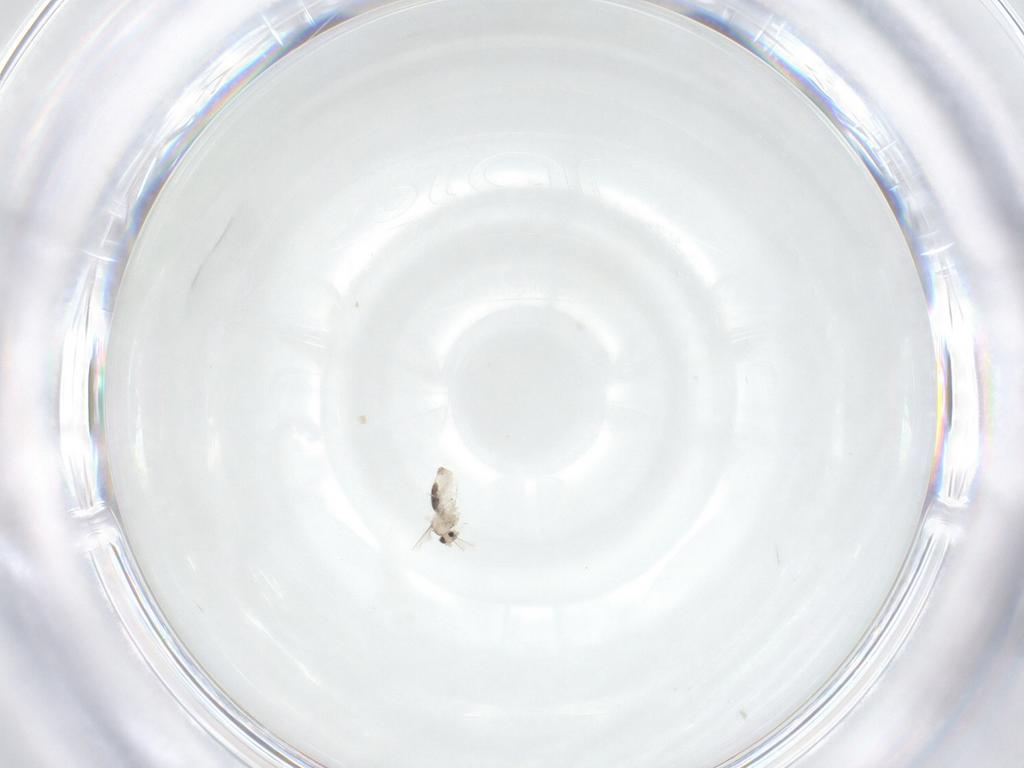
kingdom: Animalia
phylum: Arthropoda
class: Insecta
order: Diptera
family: Cecidomyiidae
